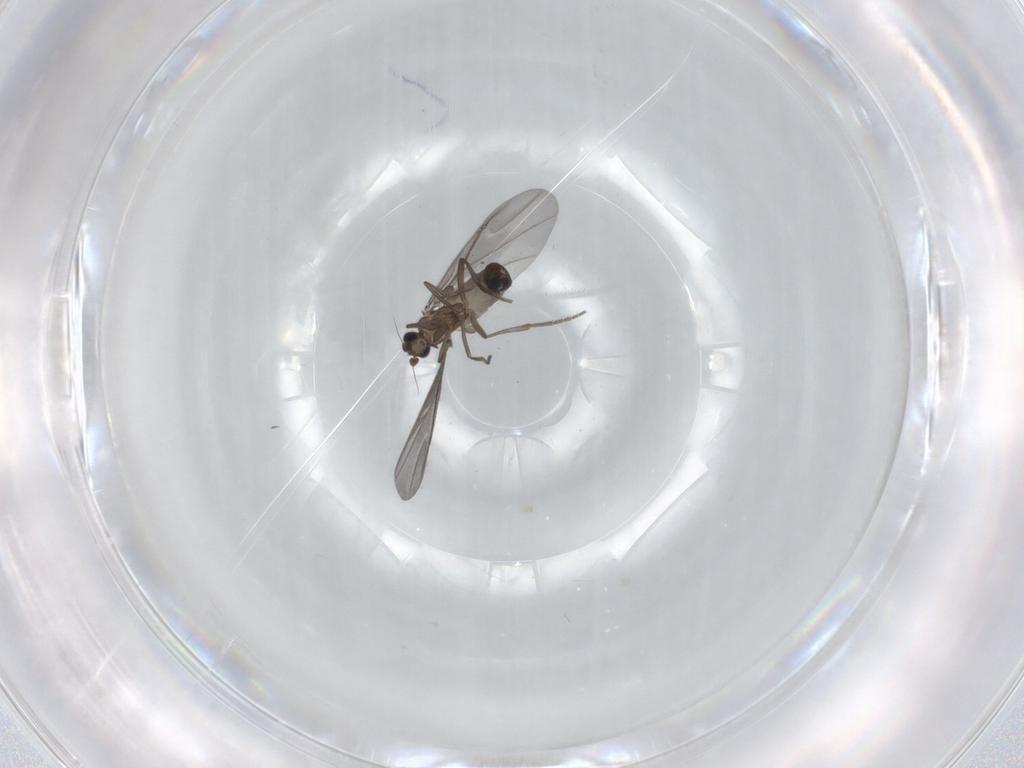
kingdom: Animalia
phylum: Arthropoda
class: Insecta
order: Diptera
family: Phoridae
